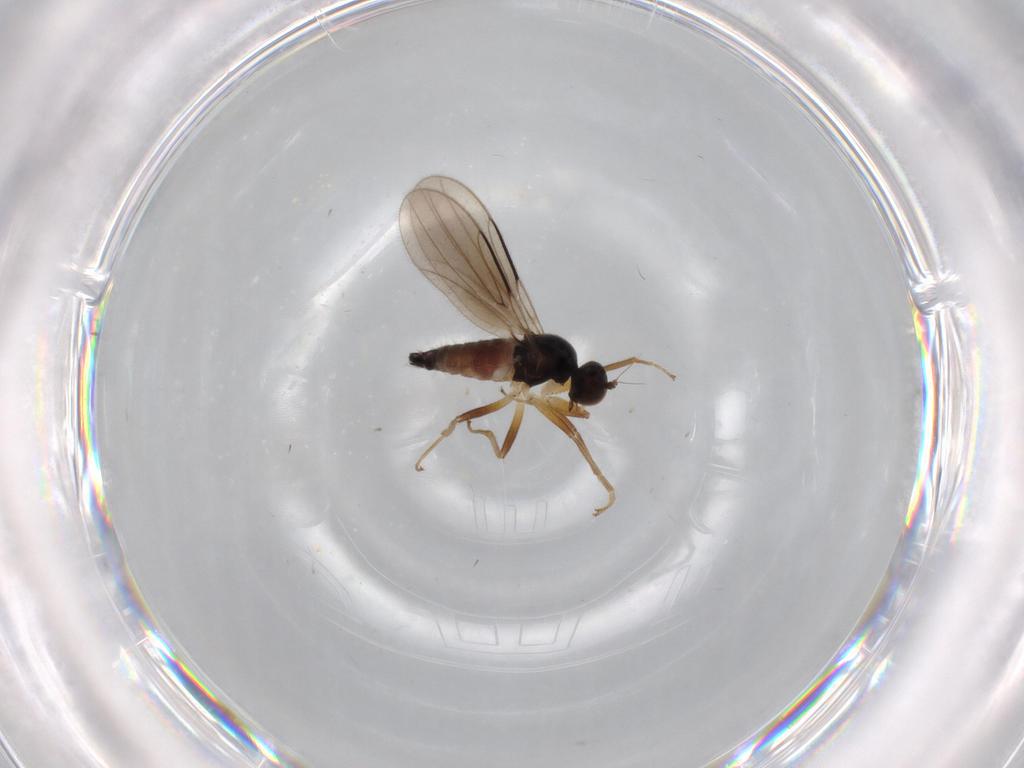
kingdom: Animalia
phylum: Arthropoda
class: Insecta
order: Diptera
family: Hybotidae
